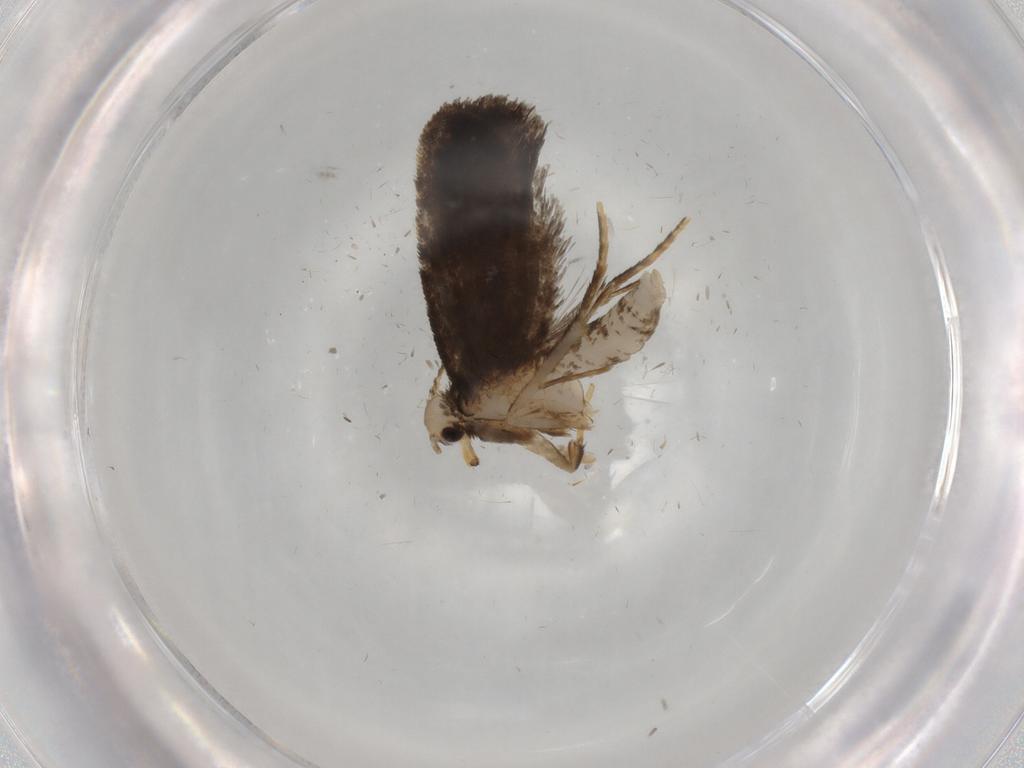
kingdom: Animalia
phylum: Arthropoda
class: Insecta
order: Lepidoptera
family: Psychidae
